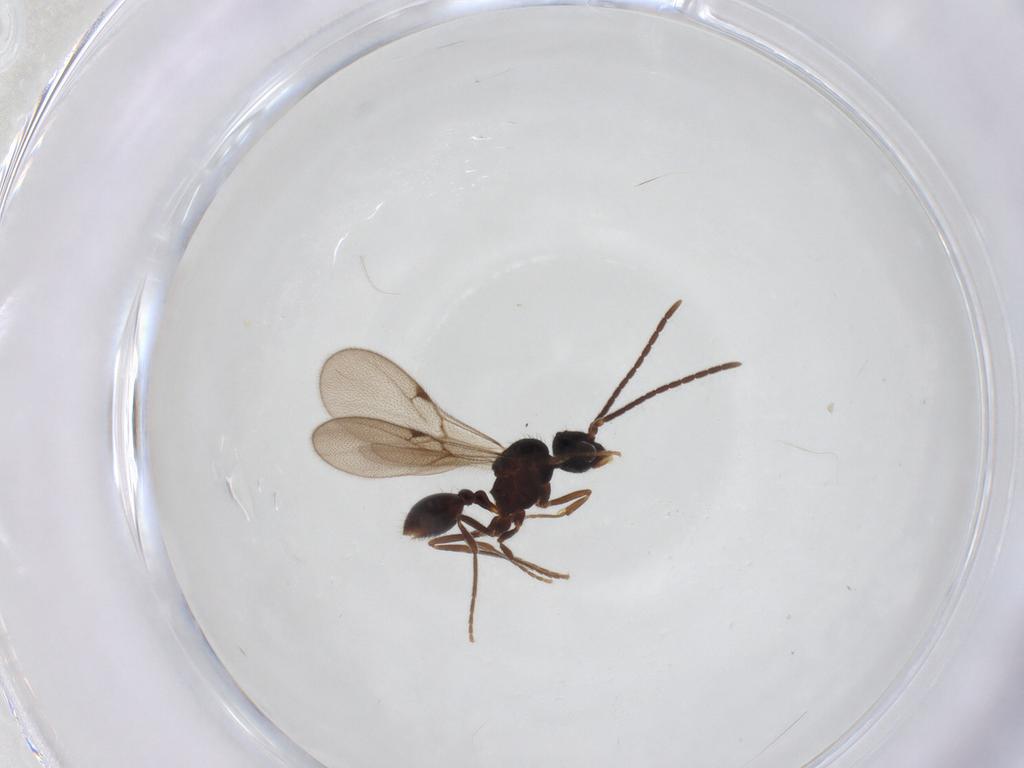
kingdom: Animalia
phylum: Arthropoda
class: Insecta
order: Hymenoptera
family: Formicidae
